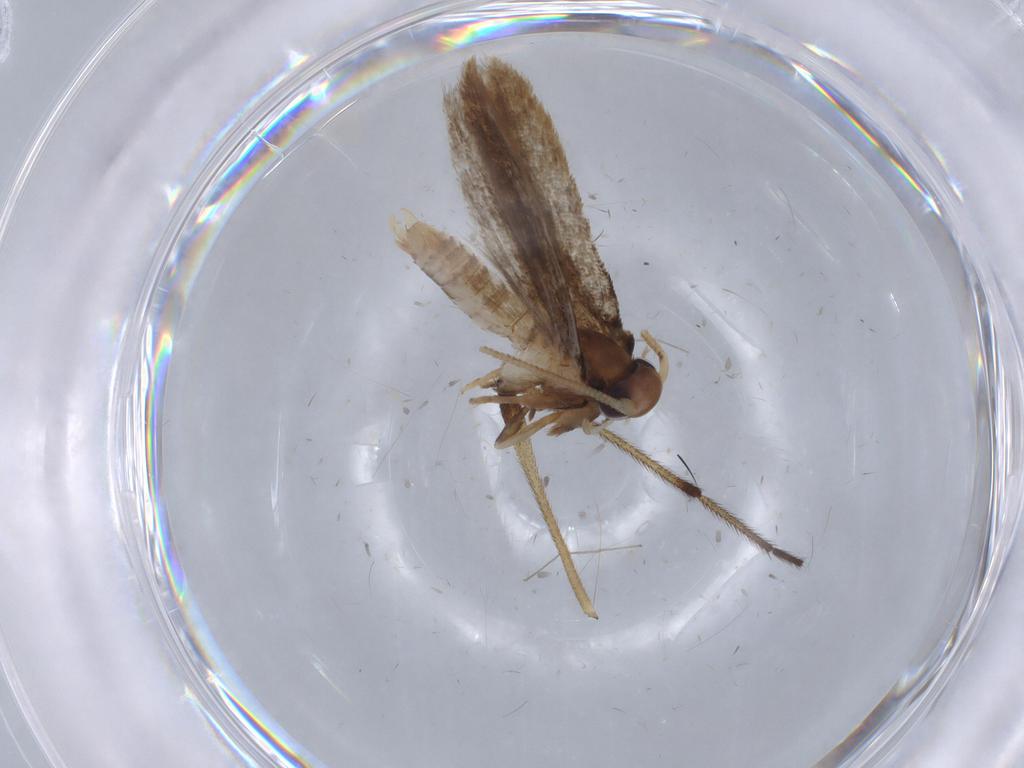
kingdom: Animalia
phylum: Arthropoda
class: Insecta
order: Lepidoptera
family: Coleophoridae
